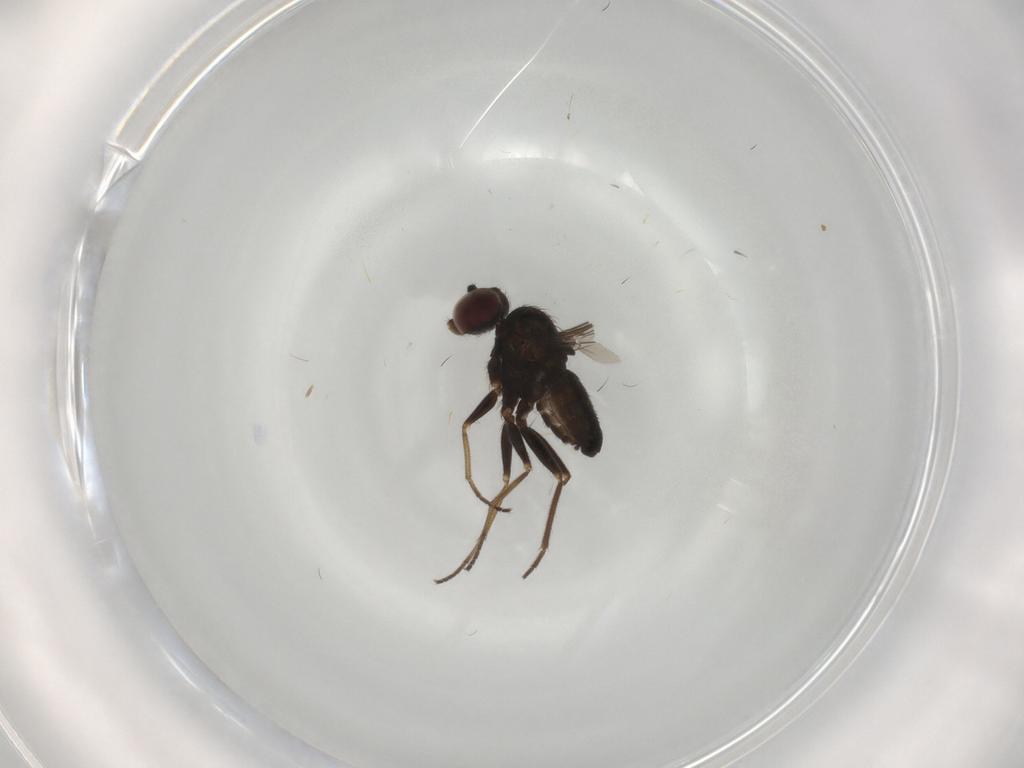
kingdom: Animalia
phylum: Arthropoda
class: Insecta
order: Diptera
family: Dolichopodidae
